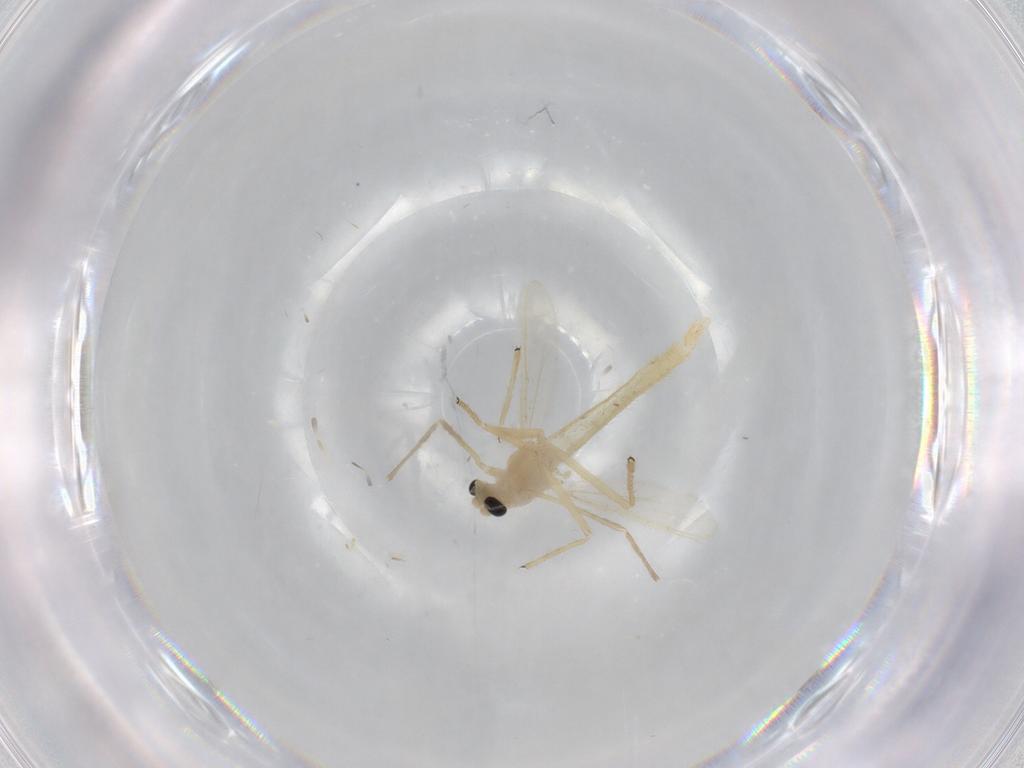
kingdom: Animalia
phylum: Arthropoda
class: Insecta
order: Diptera
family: Chironomidae
